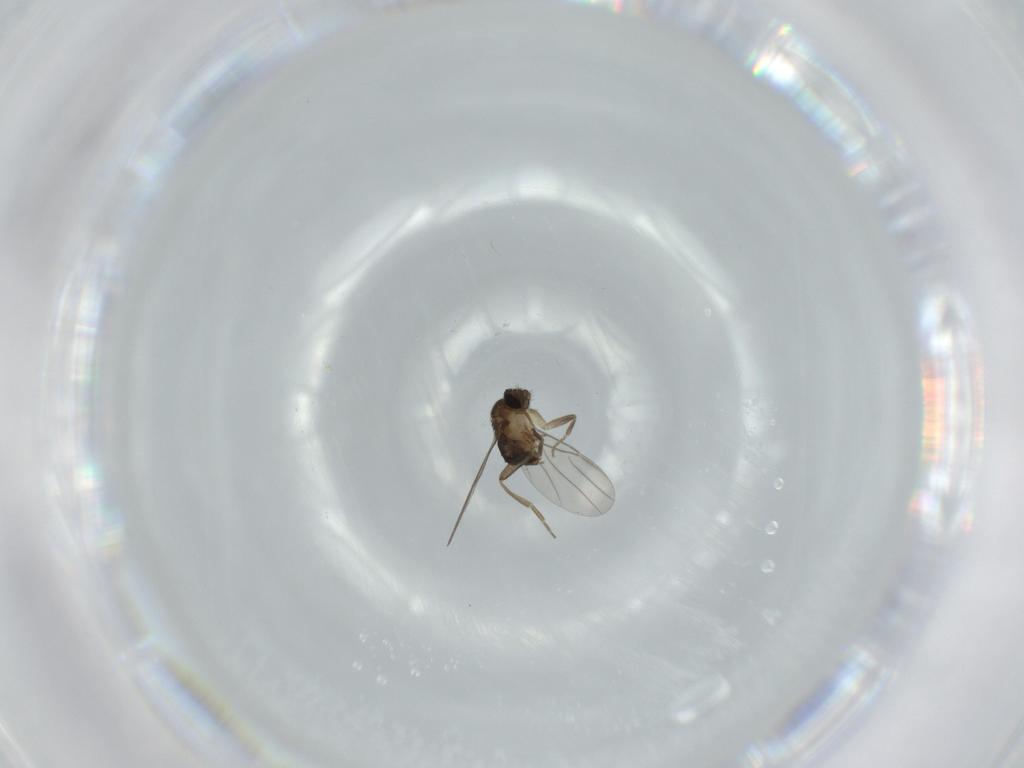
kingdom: Animalia
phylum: Arthropoda
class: Insecta
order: Diptera
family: Phoridae
